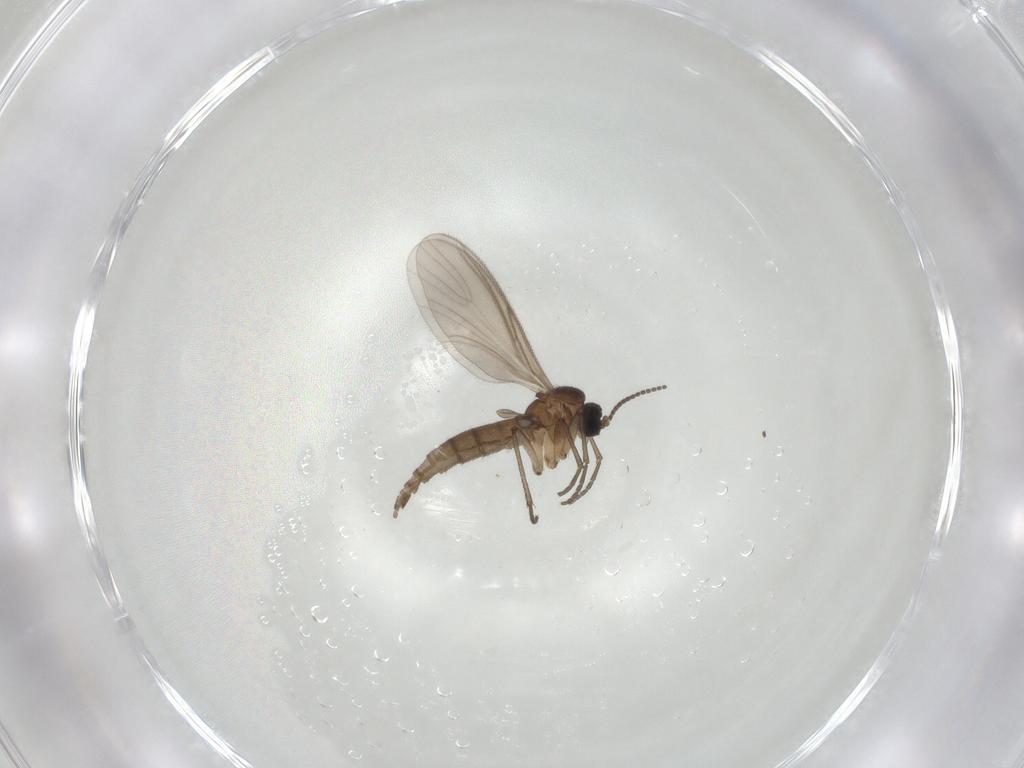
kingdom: Animalia
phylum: Arthropoda
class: Insecta
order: Diptera
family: Sciaridae
